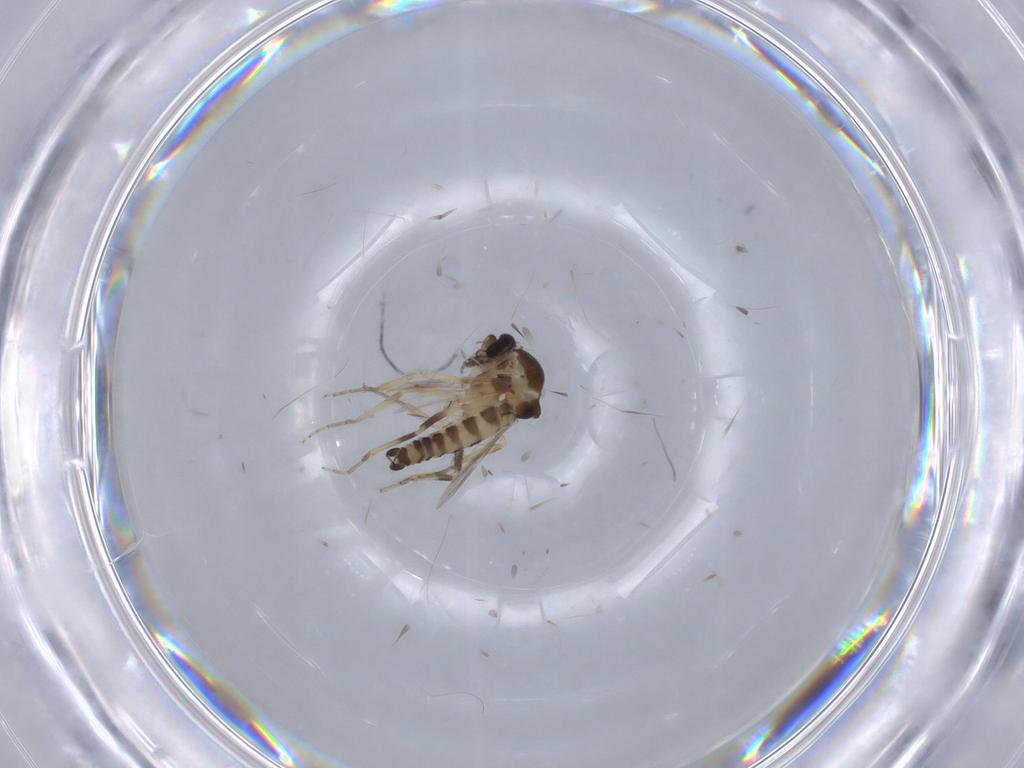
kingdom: Animalia
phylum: Arthropoda
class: Insecta
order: Diptera
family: Ceratopogonidae
